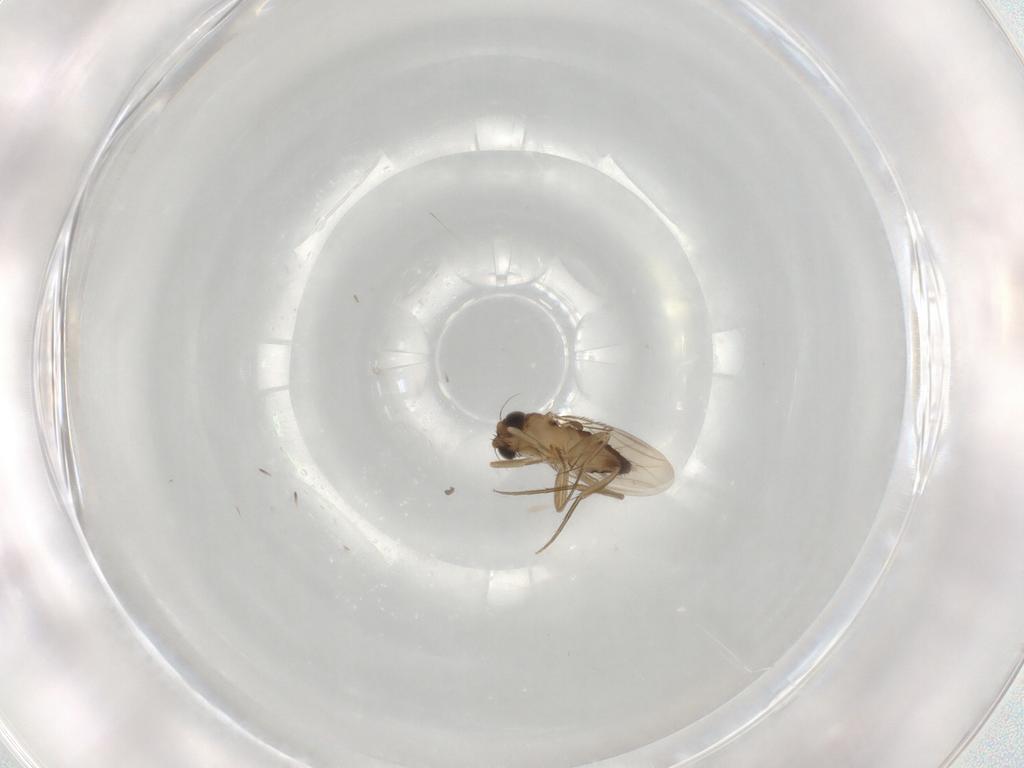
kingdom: Animalia
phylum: Arthropoda
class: Insecta
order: Diptera
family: Phoridae
